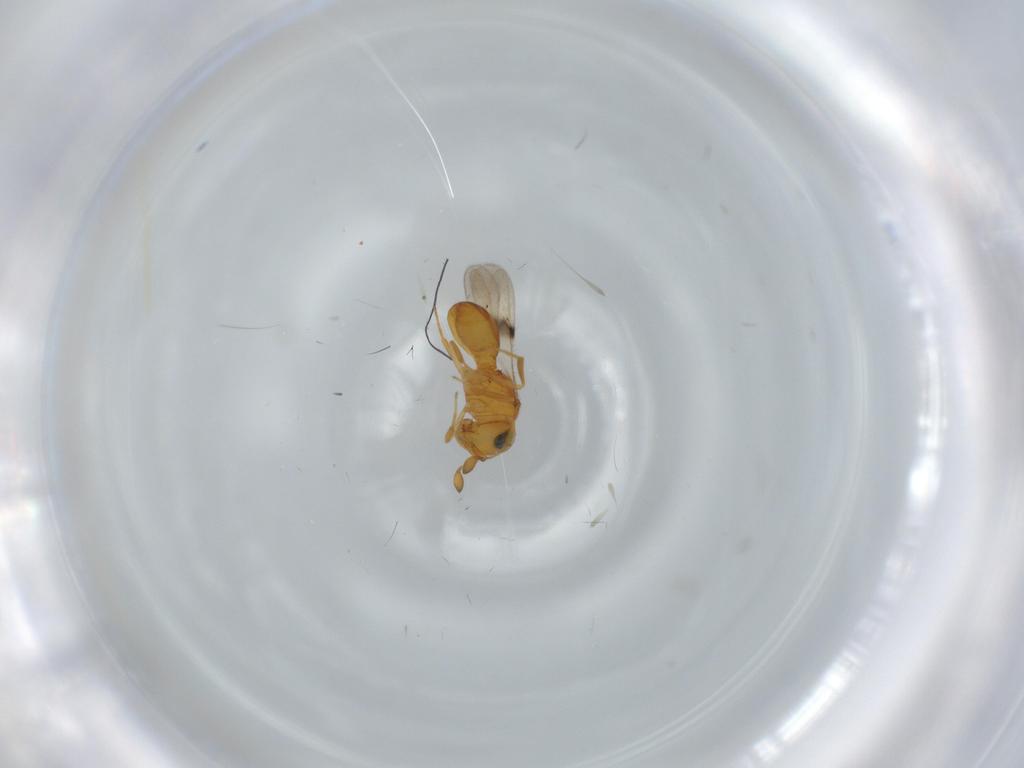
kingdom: Animalia
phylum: Arthropoda
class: Insecta
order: Hymenoptera
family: Scelionidae
